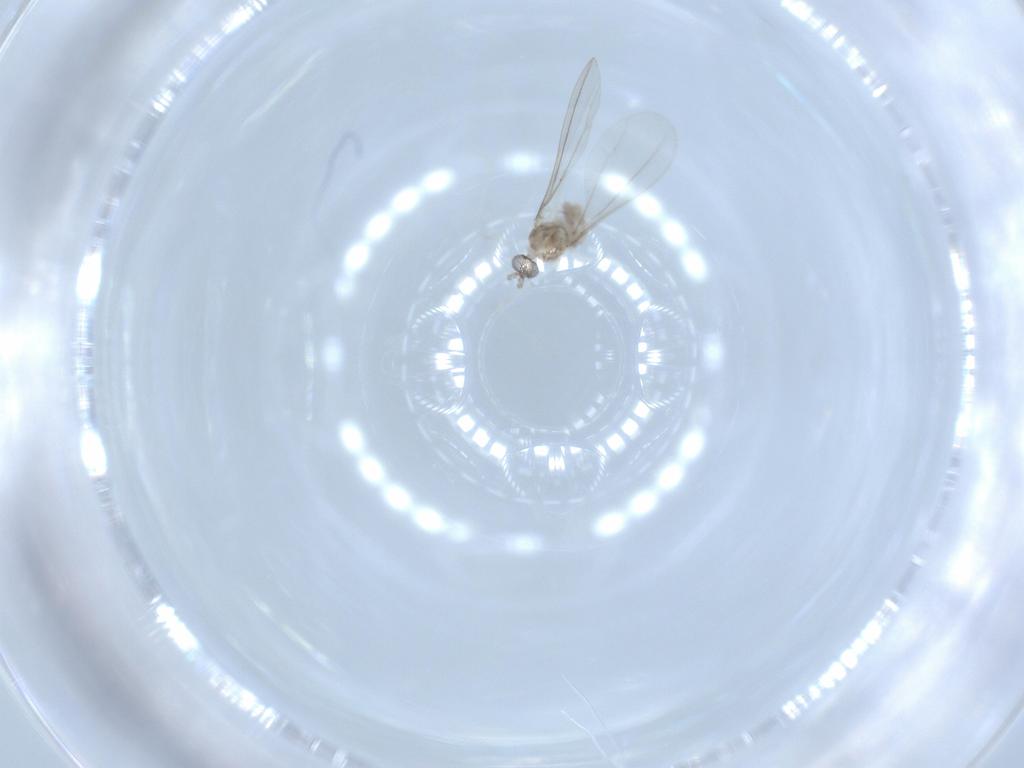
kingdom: Animalia
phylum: Arthropoda
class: Insecta
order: Diptera
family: Cecidomyiidae
